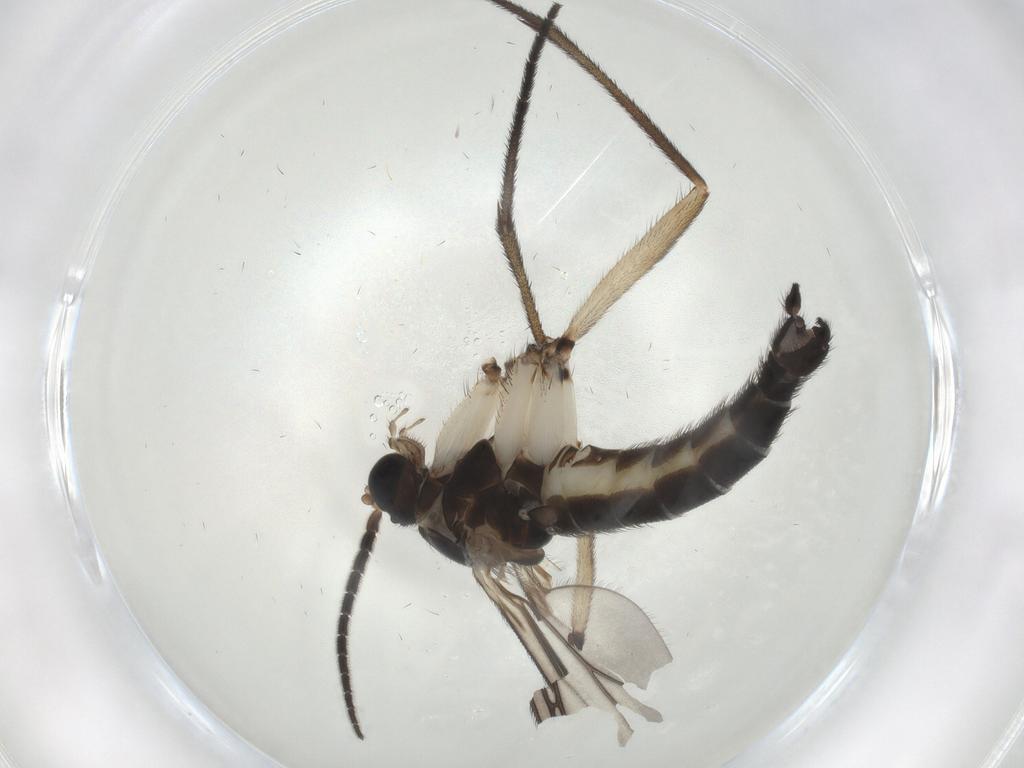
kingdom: Animalia
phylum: Arthropoda
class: Insecta
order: Diptera
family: Sciaridae
